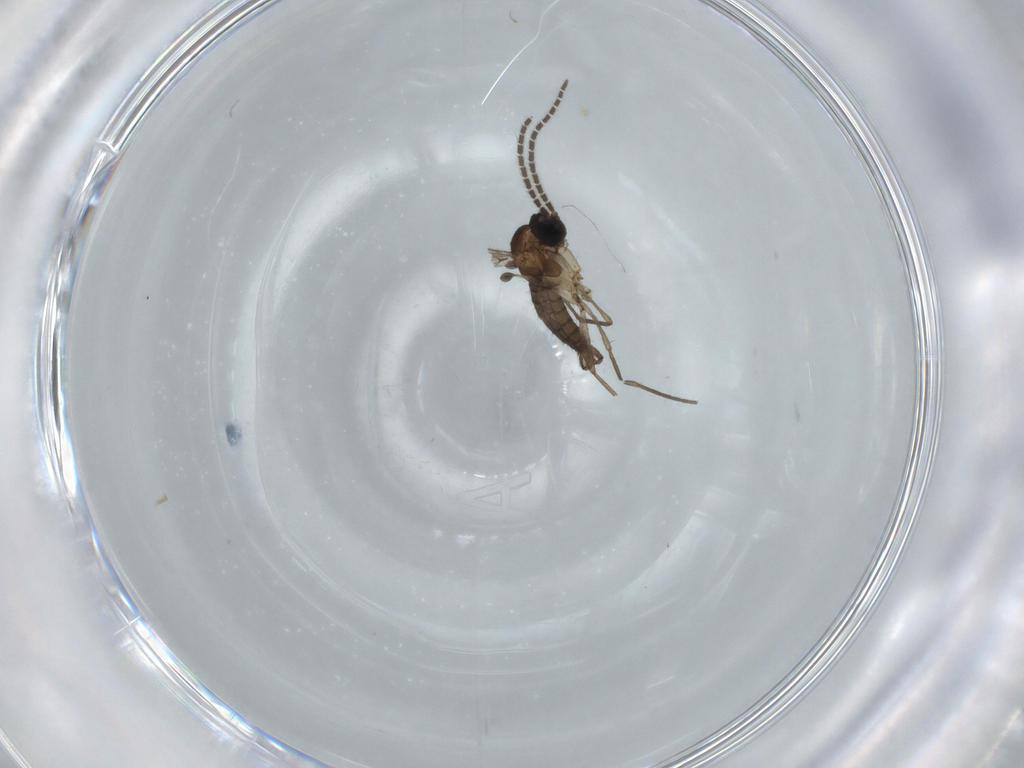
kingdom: Animalia
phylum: Arthropoda
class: Insecta
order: Diptera
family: Sciaridae
